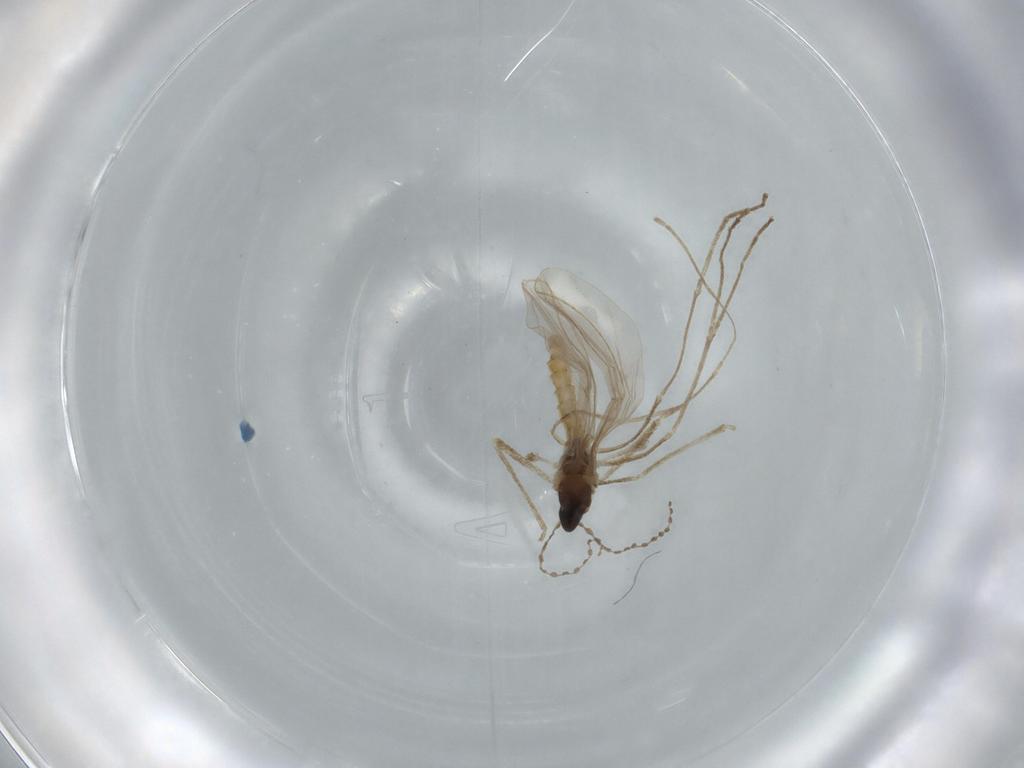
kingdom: Animalia
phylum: Arthropoda
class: Insecta
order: Diptera
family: Cecidomyiidae
